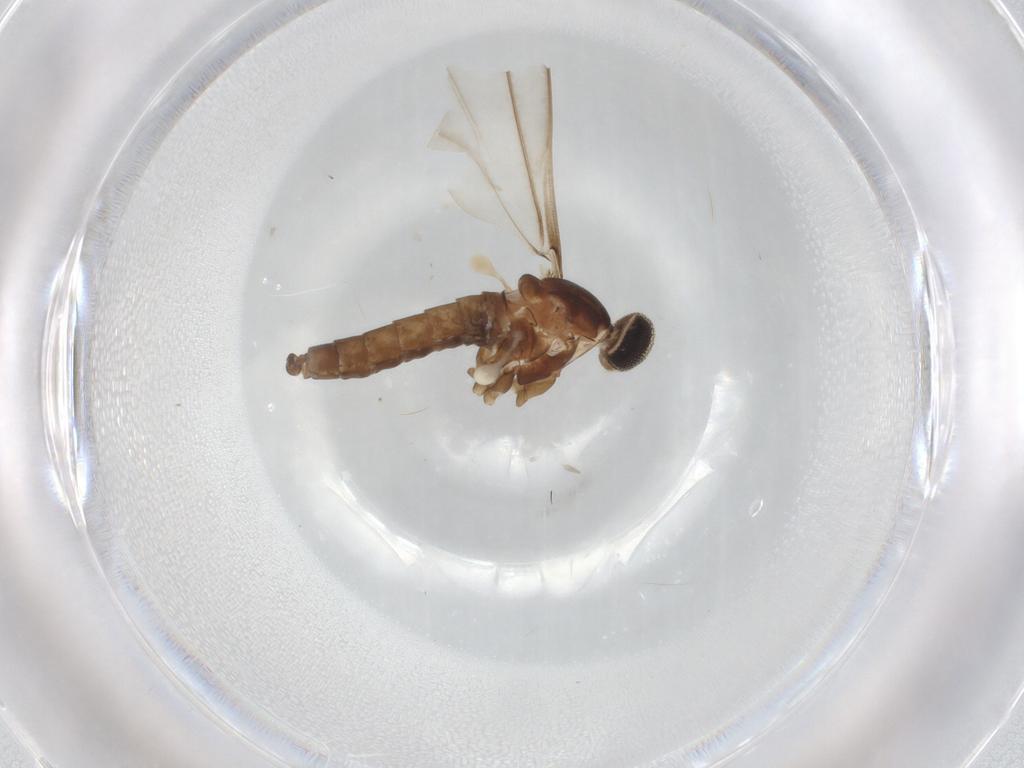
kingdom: Animalia
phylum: Arthropoda
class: Insecta
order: Diptera
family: Cecidomyiidae
